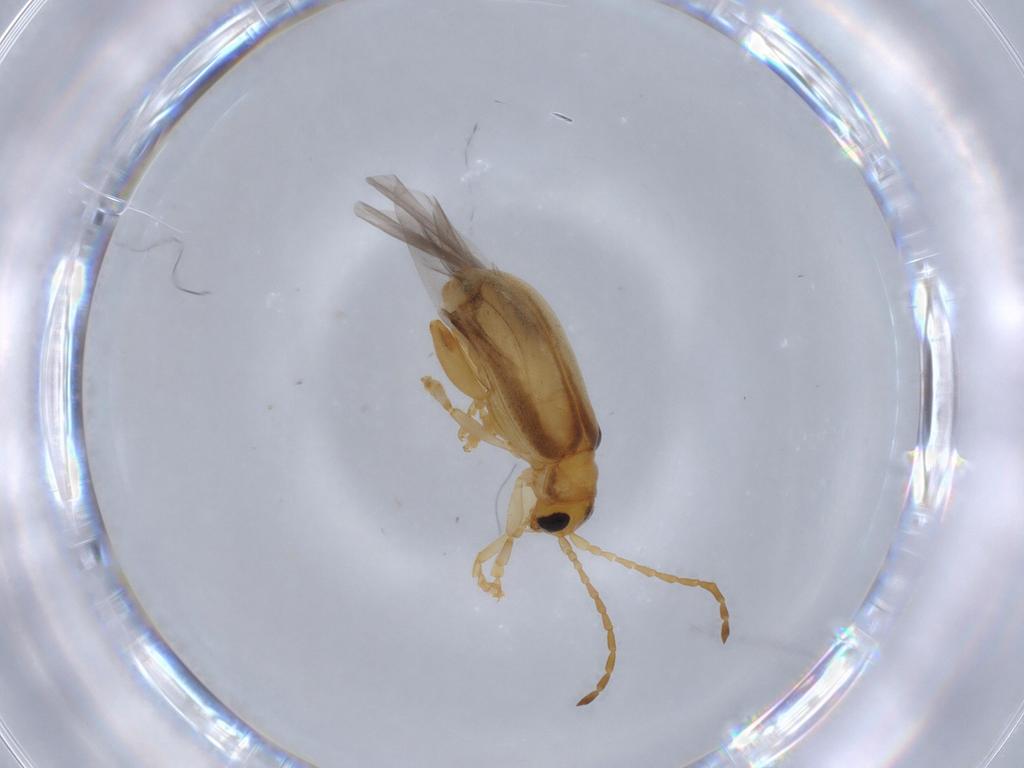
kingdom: Animalia
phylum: Arthropoda
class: Insecta
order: Coleoptera
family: Chrysomelidae
